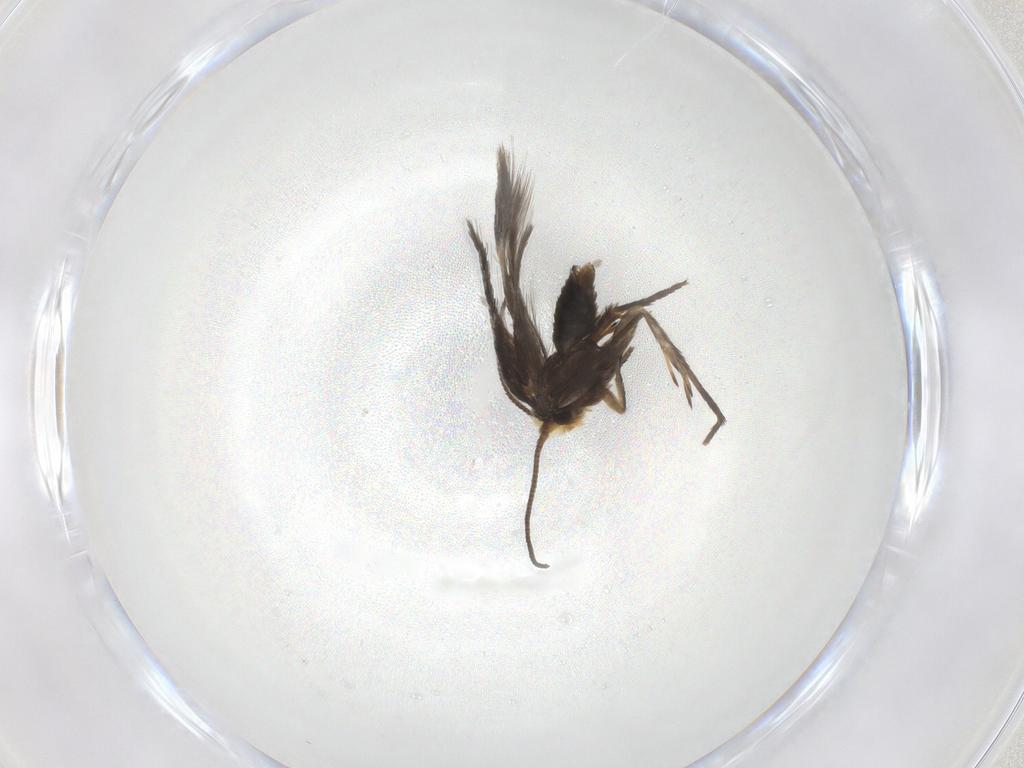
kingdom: Animalia
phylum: Arthropoda
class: Insecta
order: Lepidoptera
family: Nepticulidae
